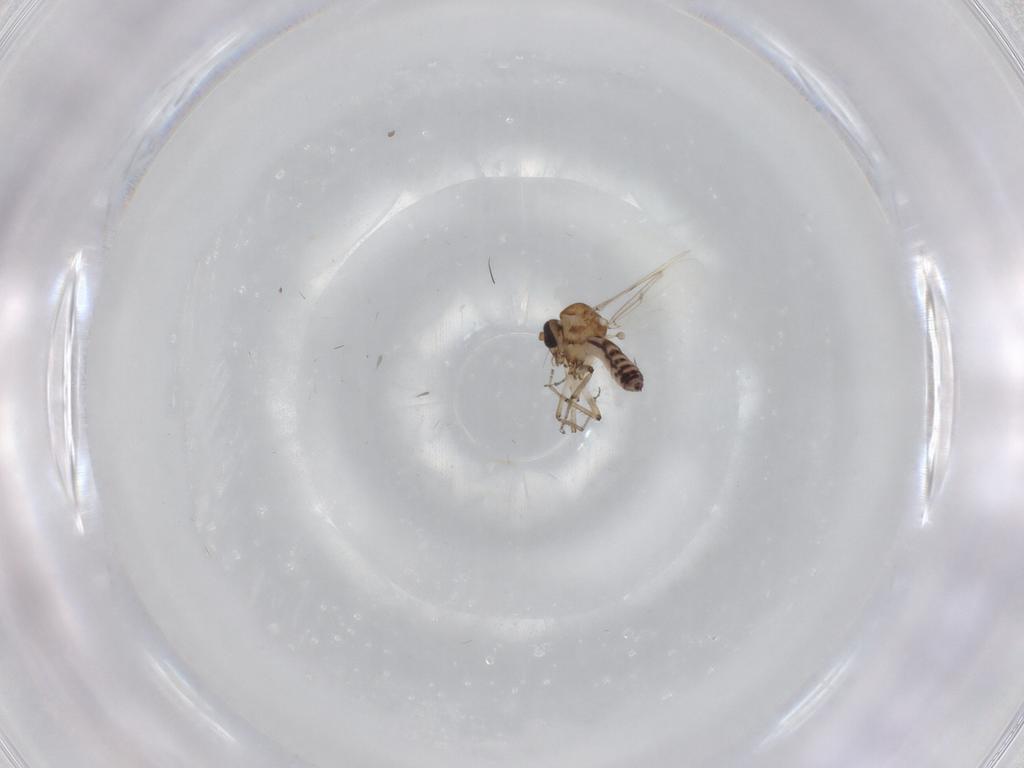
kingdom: Animalia
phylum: Arthropoda
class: Insecta
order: Diptera
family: Ceratopogonidae
